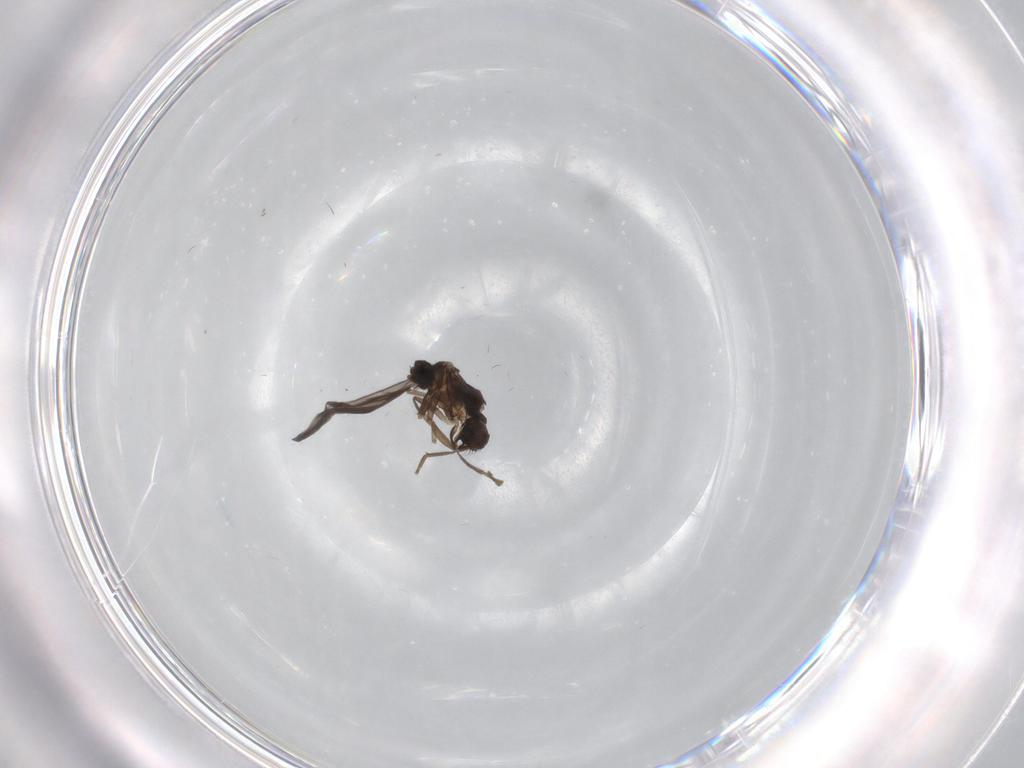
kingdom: Animalia
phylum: Arthropoda
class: Insecta
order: Diptera
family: Phoridae
